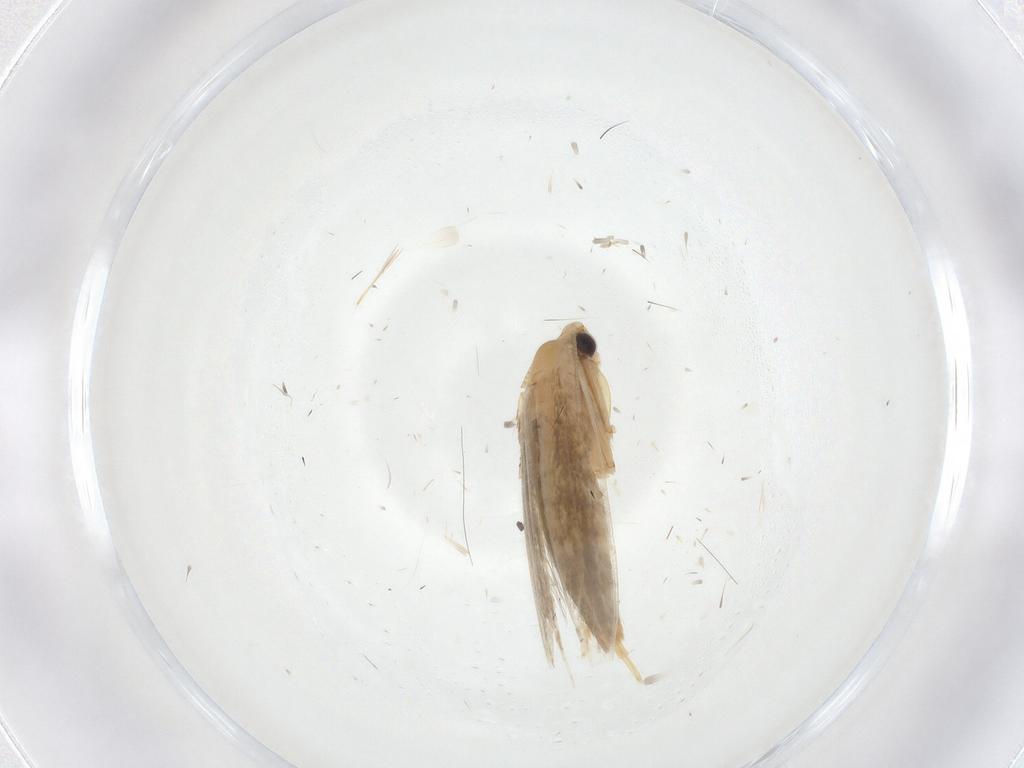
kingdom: Animalia
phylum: Arthropoda
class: Insecta
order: Lepidoptera
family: Tineidae
